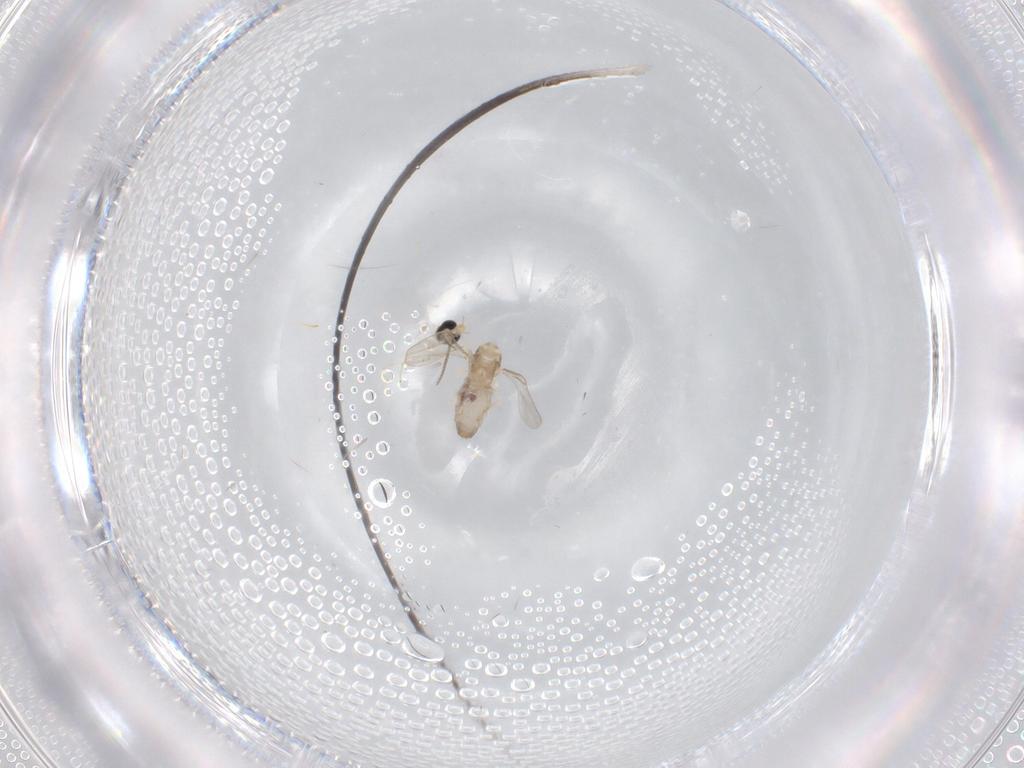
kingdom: Animalia
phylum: Arthropoda
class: Insecta
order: Diptera
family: Cecidomyiidae
